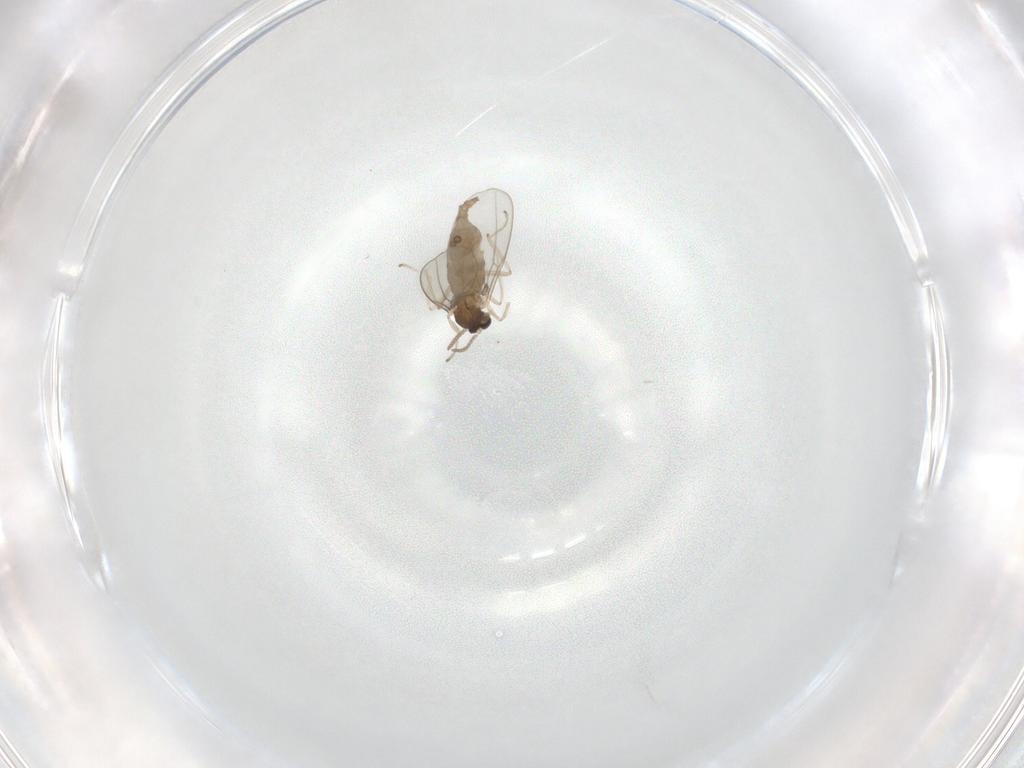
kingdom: Animalia
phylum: Arthropoda
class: Insecta
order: Diptera
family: Cecidomyiidae
